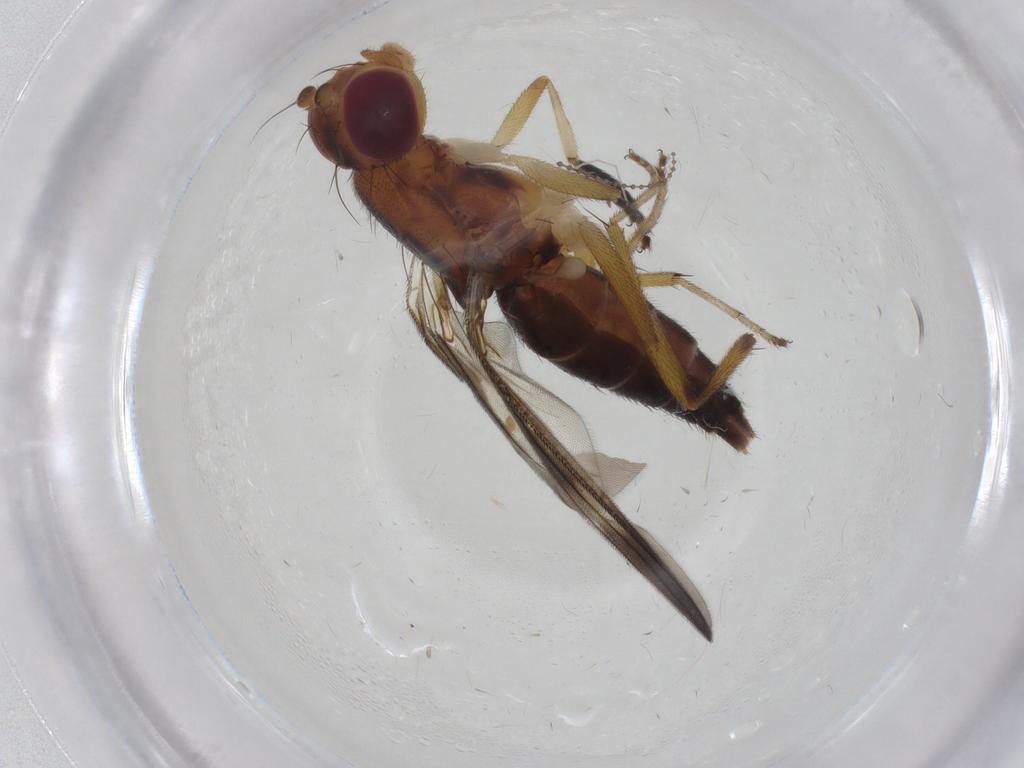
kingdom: Animalia
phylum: Arthropoda
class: Insecta
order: Diptera
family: Clusiidae
